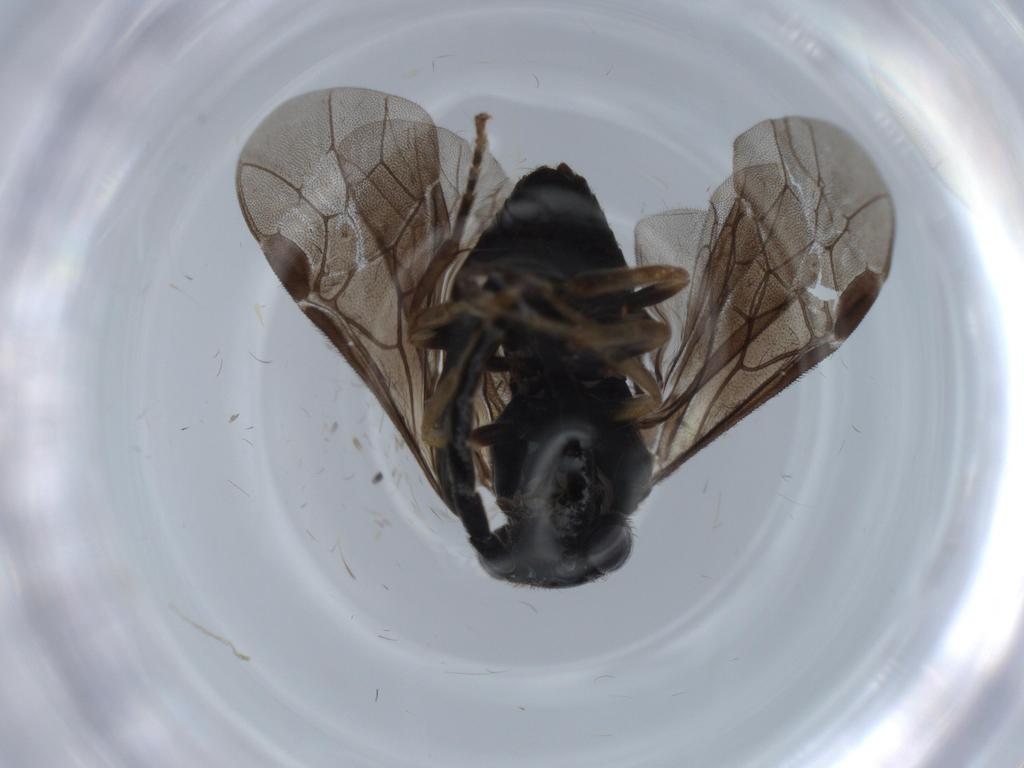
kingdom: Animalia
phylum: Arthropoda
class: Insecta
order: Hymenoptera
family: Tenthredinidae
